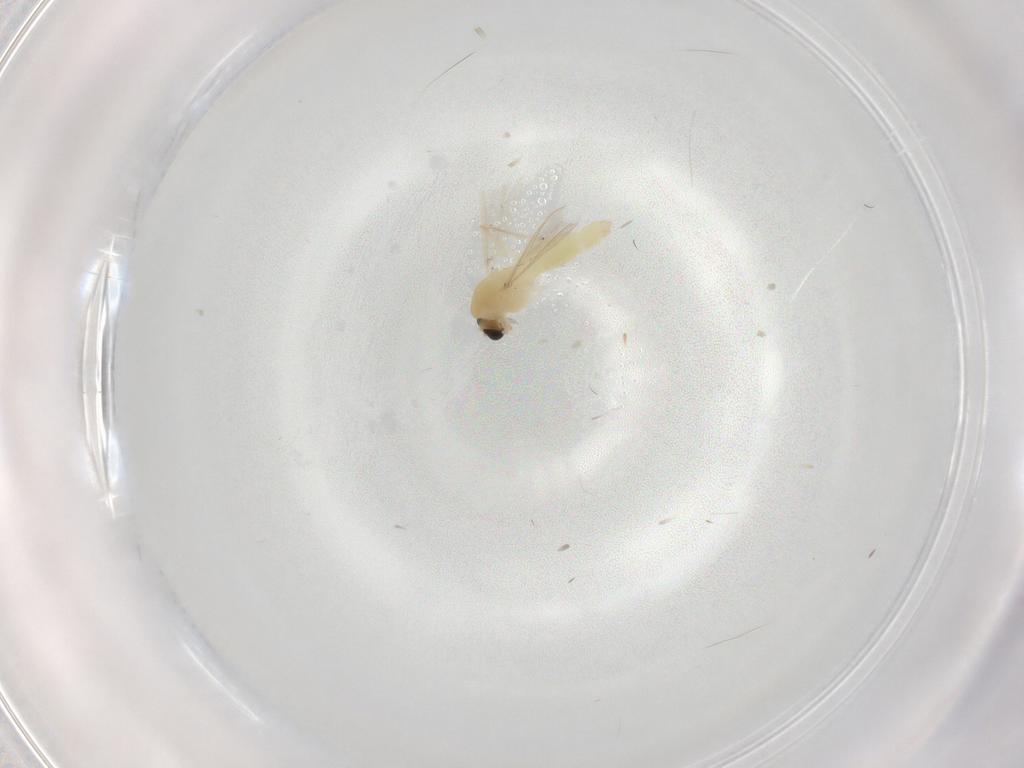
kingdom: Animalia
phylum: Arthropoda
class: Insecta
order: Diptera
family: Chironomidae
